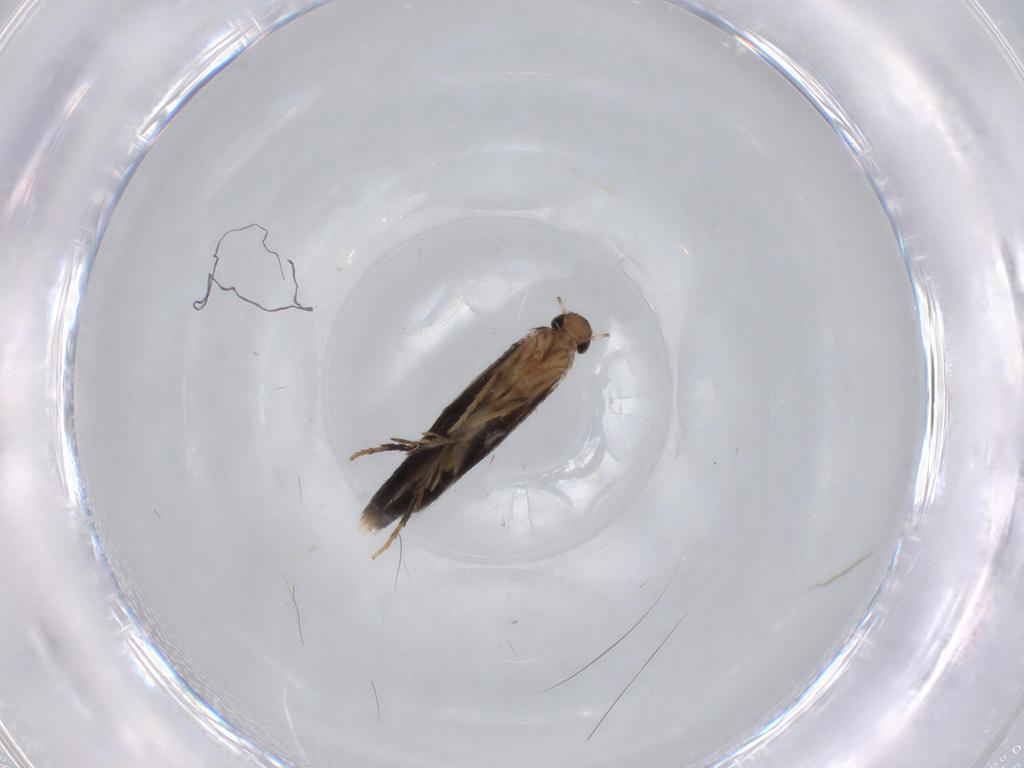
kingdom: Animalia
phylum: Arthropoda
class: Insecta
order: Lepidoptera
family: Heliozelidae
